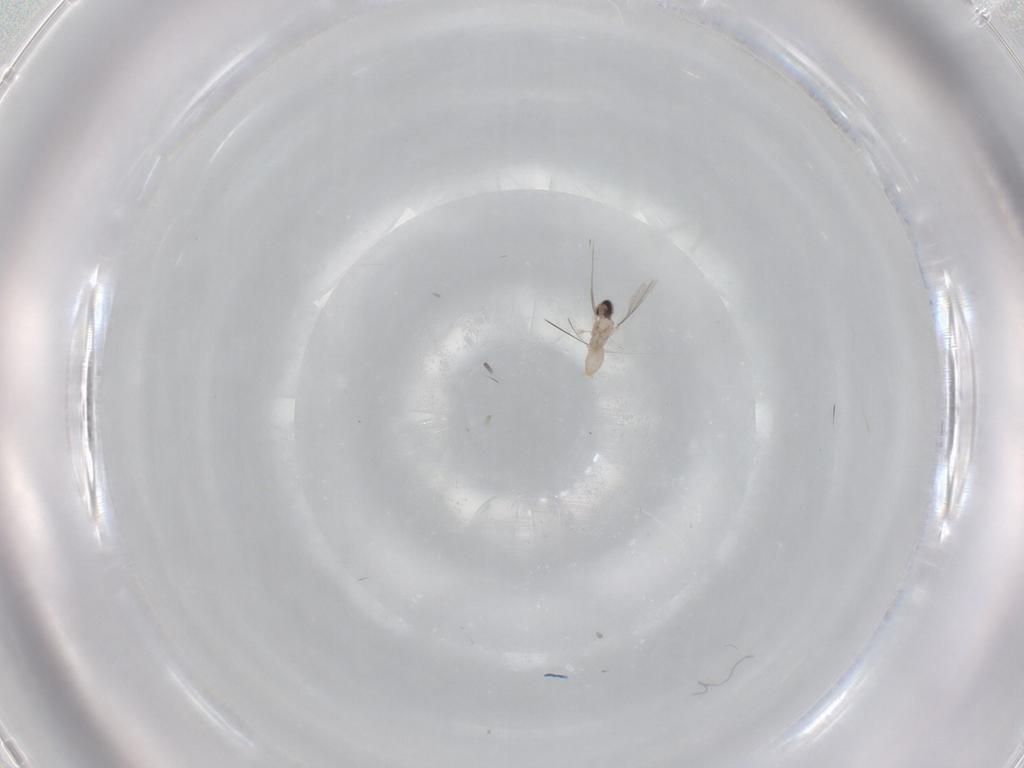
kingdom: Animalia
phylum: Arthropoda
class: Insecta
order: Diptera
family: Cecidomyiidae
